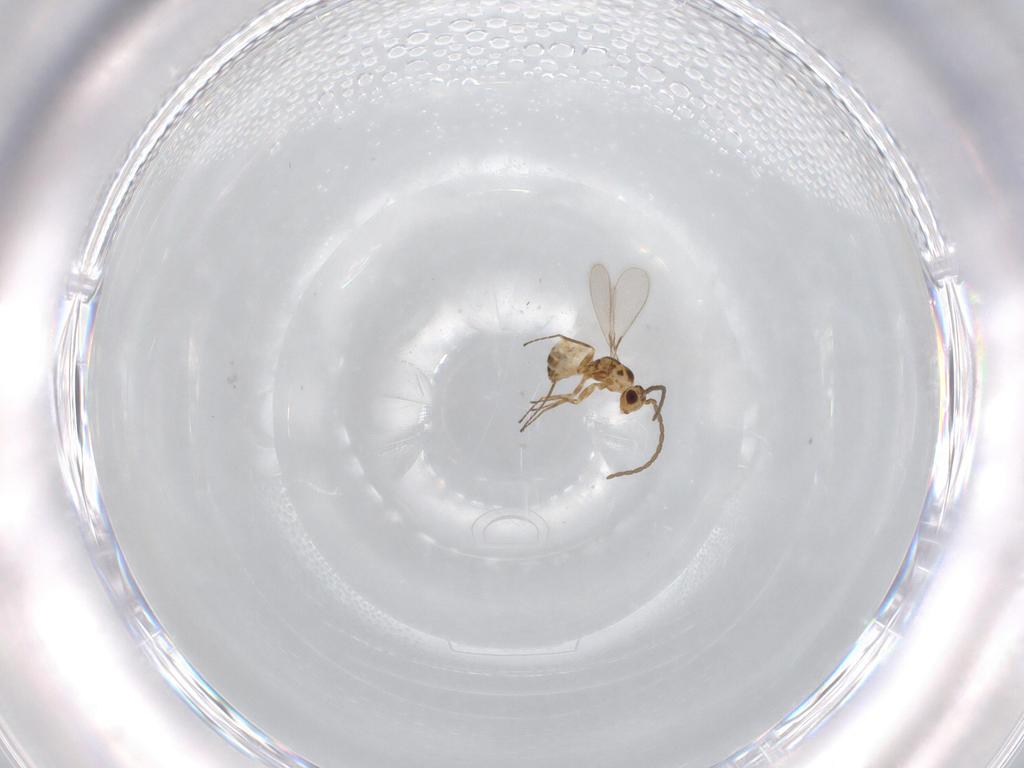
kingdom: Animalia
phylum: Arthropoda
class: Insecta
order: Hymenoptera
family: Mymaridae
